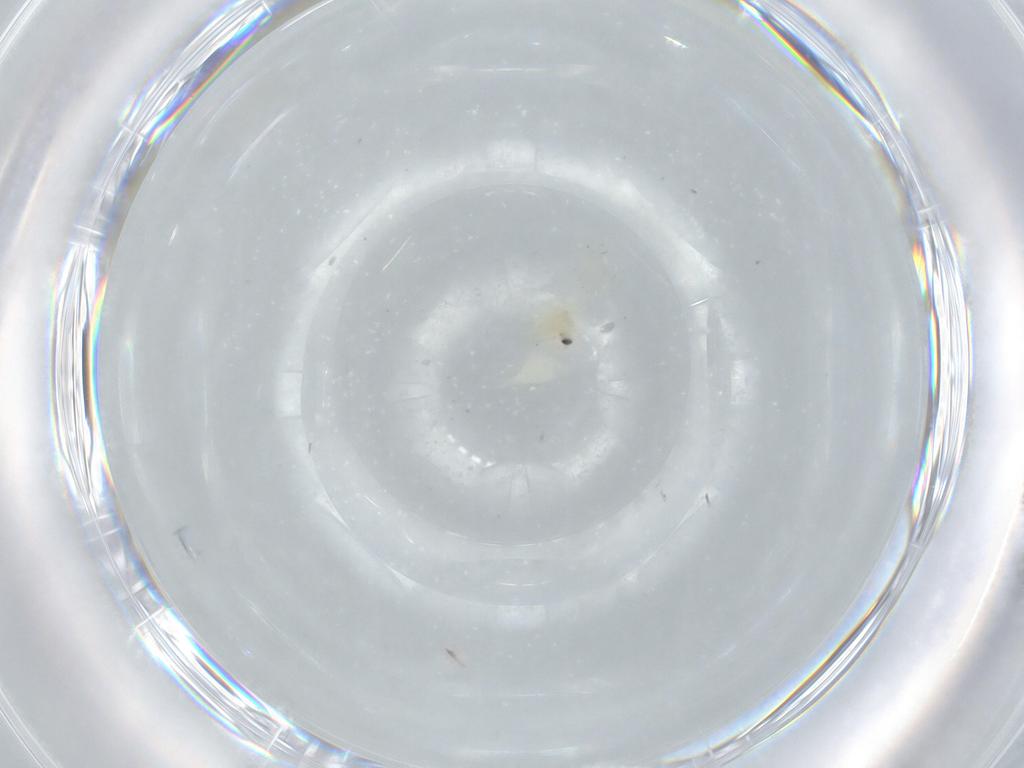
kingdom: Animalia
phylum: Arthropoda
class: Insecta
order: Hemiptera
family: Aleyrodidae
